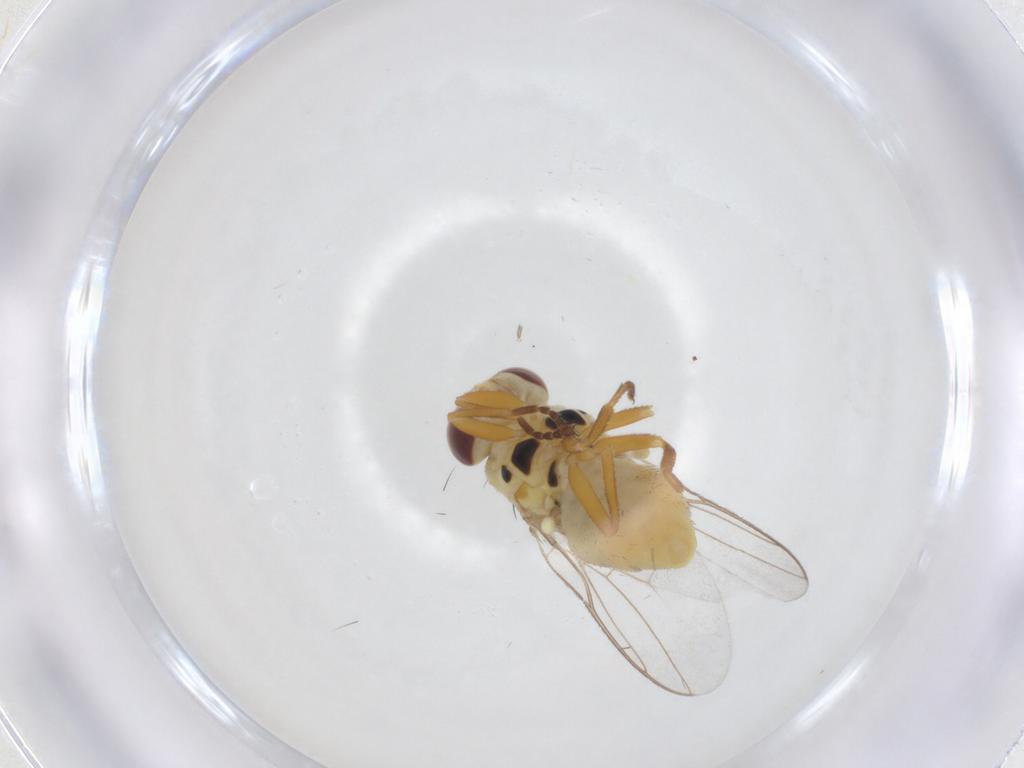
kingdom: Animalia
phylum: Arthropoda
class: Insecta
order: Diptera
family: Chloropidae
